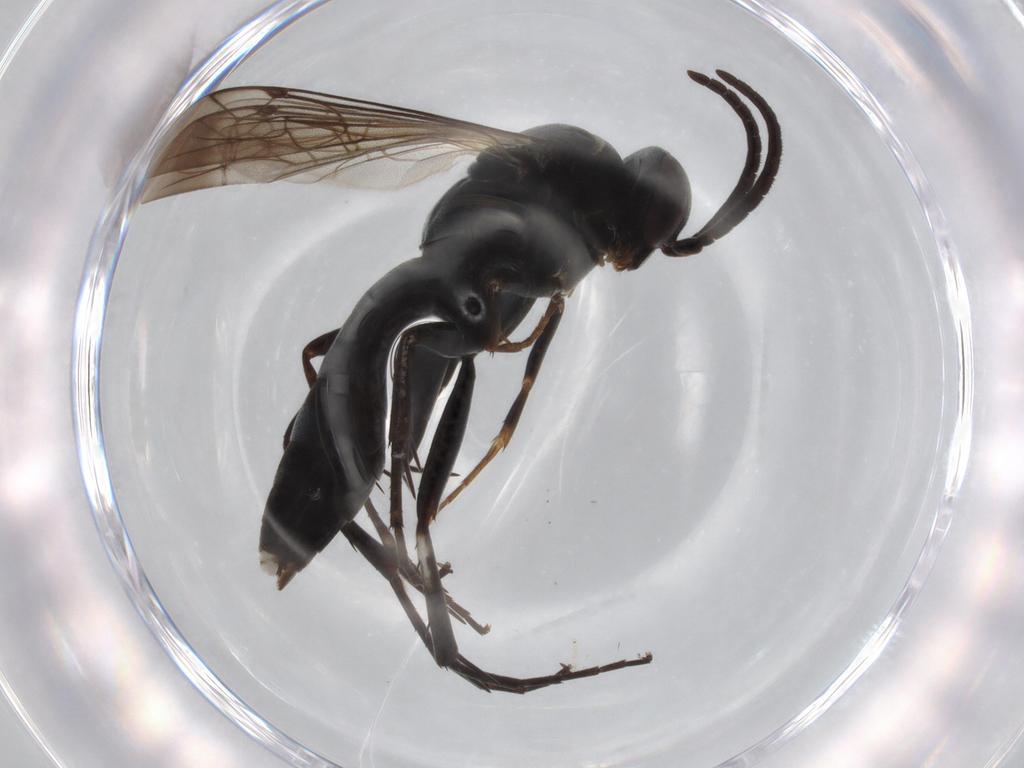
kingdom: Animalia
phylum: Arthropoda
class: Insecta
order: Hymenoptera
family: Pompilidae
